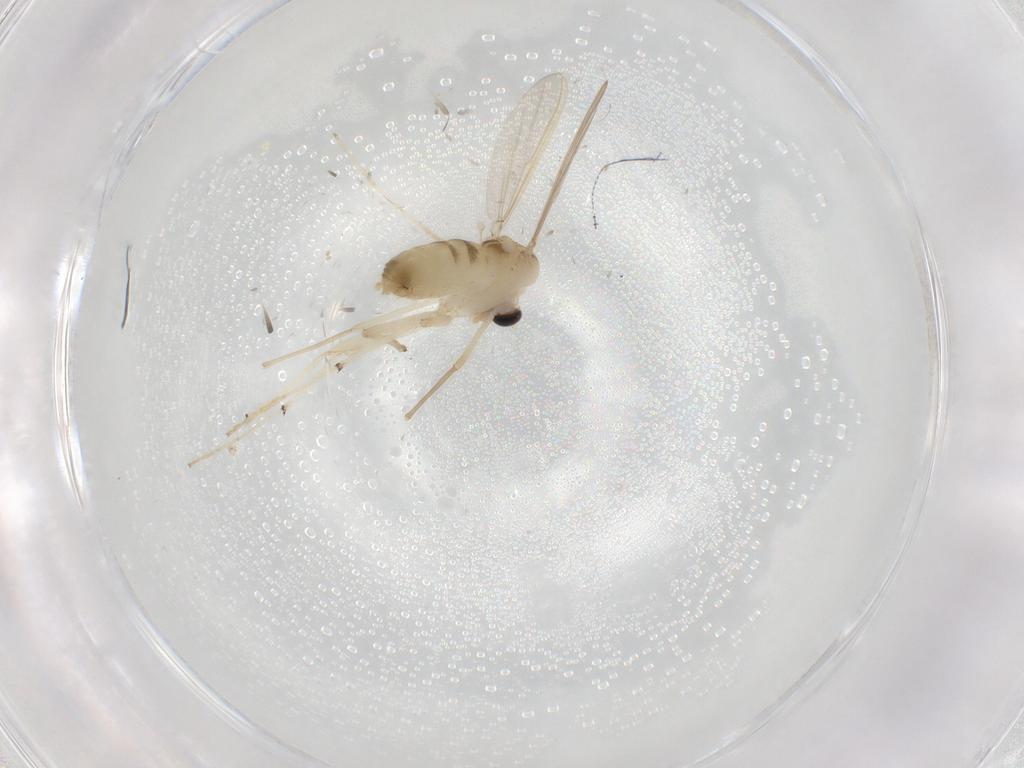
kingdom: Animalia
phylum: Arthropoda
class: Insecta
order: Diptera
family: Chironomidae
